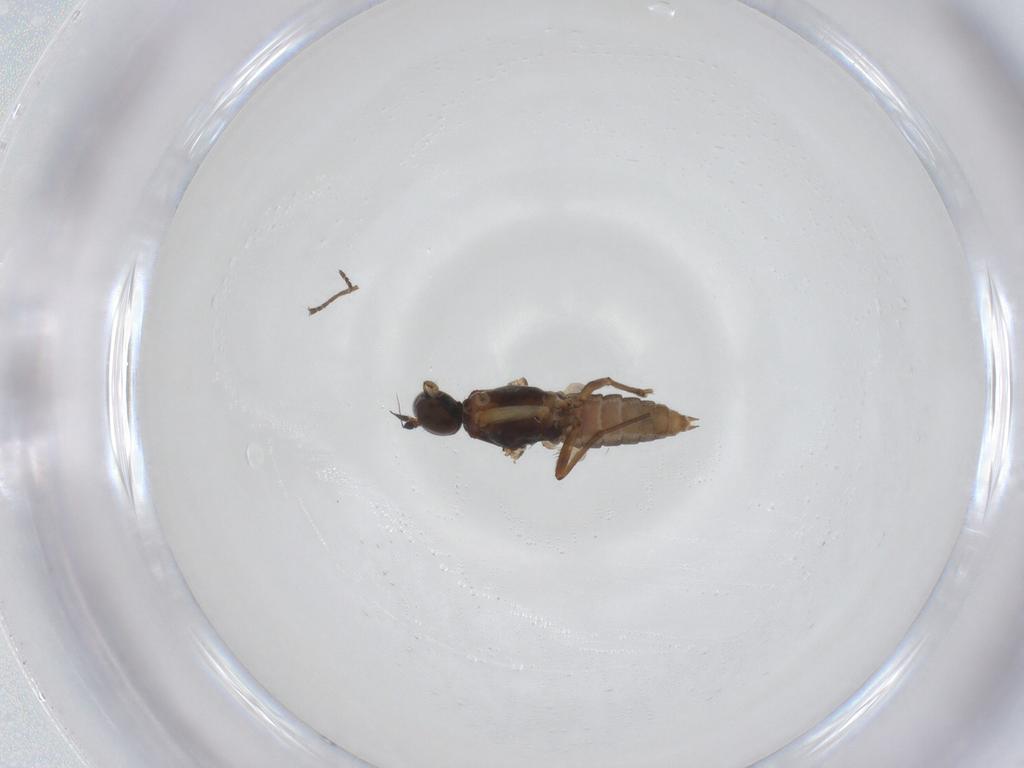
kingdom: Animalia
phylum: Arthropoda
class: Insecta
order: Diptera
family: Empididae
